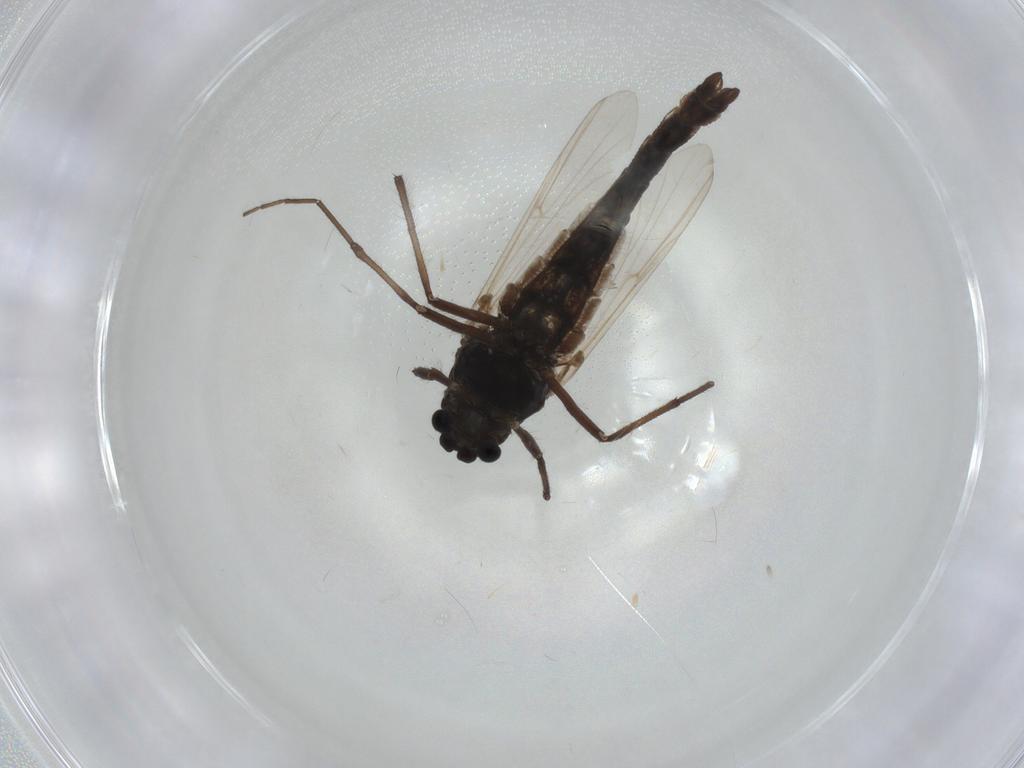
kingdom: Animalia
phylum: Arthropoda
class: Insecta
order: Diptera
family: Chironomidae
